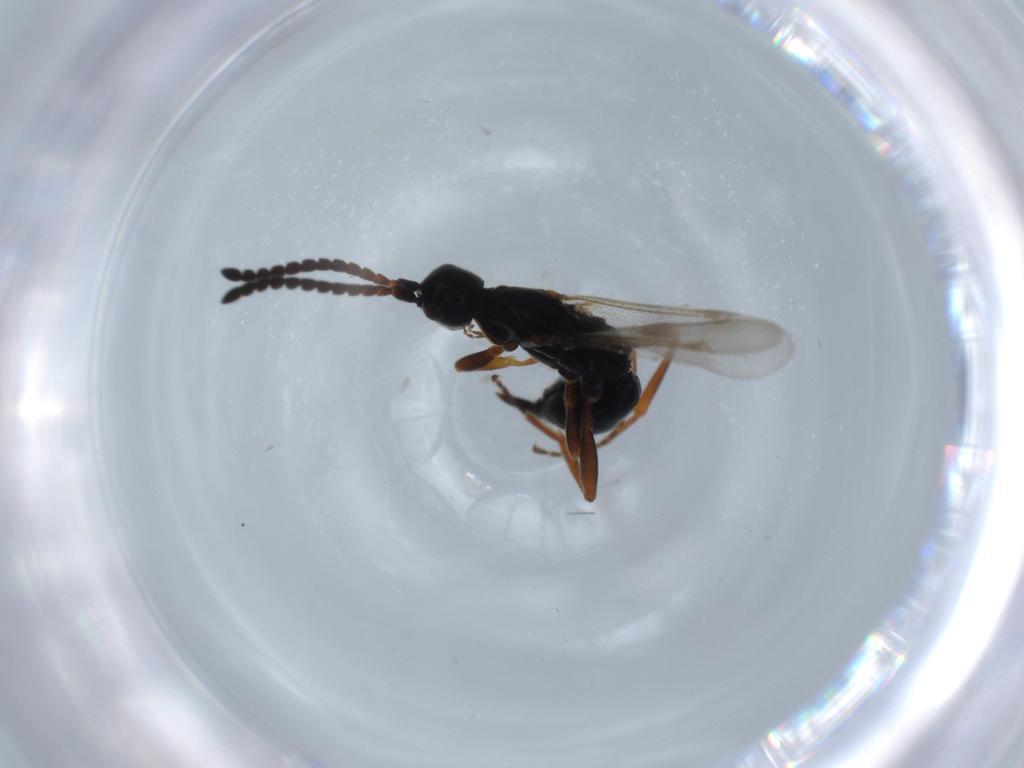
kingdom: Animalia
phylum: Arthropoda
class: Insecta
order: Hymenoptera
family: Proctotrupidae
